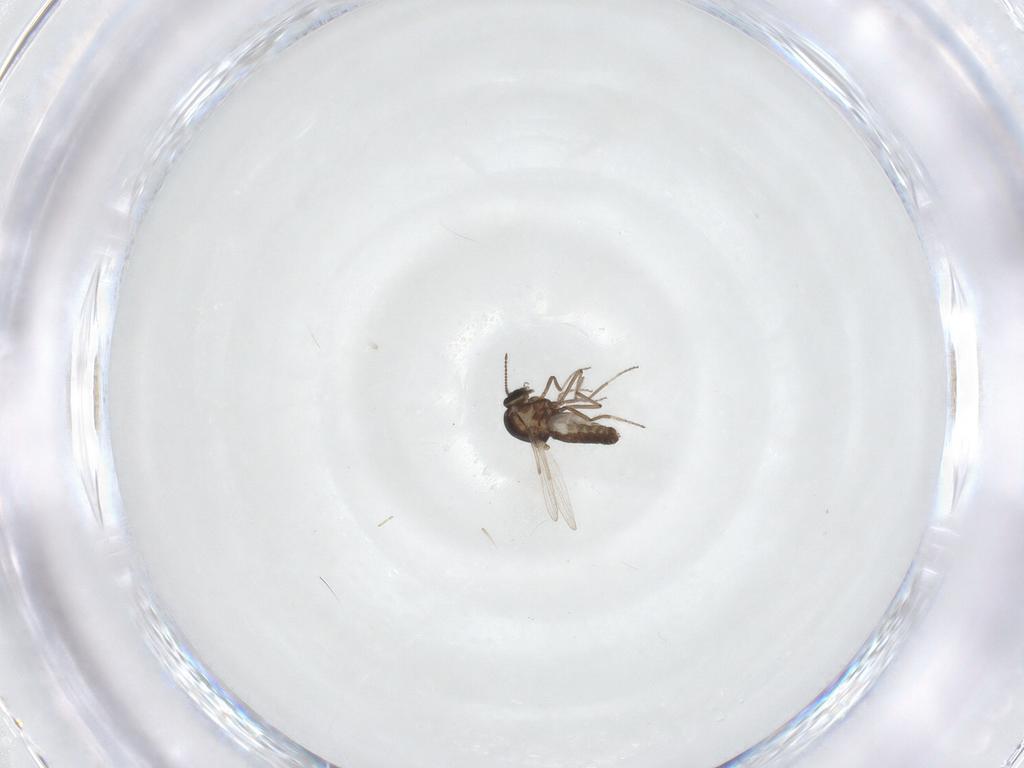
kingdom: Animalia
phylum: Arthropoda
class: Insecta
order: Diptera
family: Ceratopogonidae
